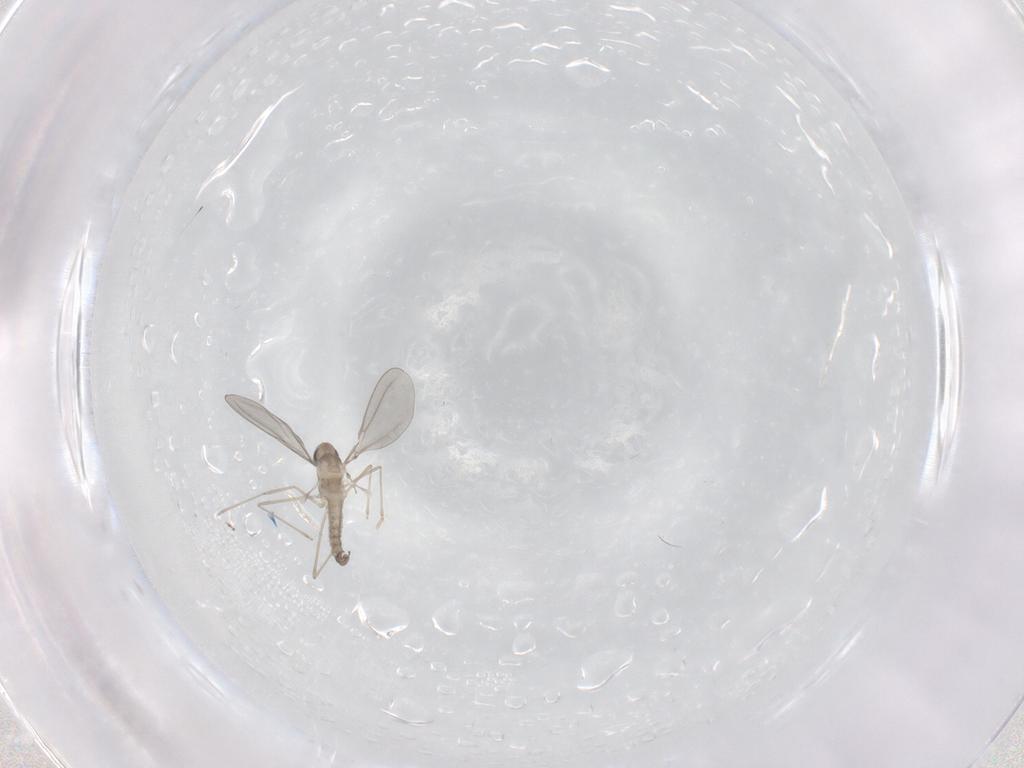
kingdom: Animalia
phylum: Arthropoda
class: Insecta
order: Diptera
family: Cecidomyiidae
